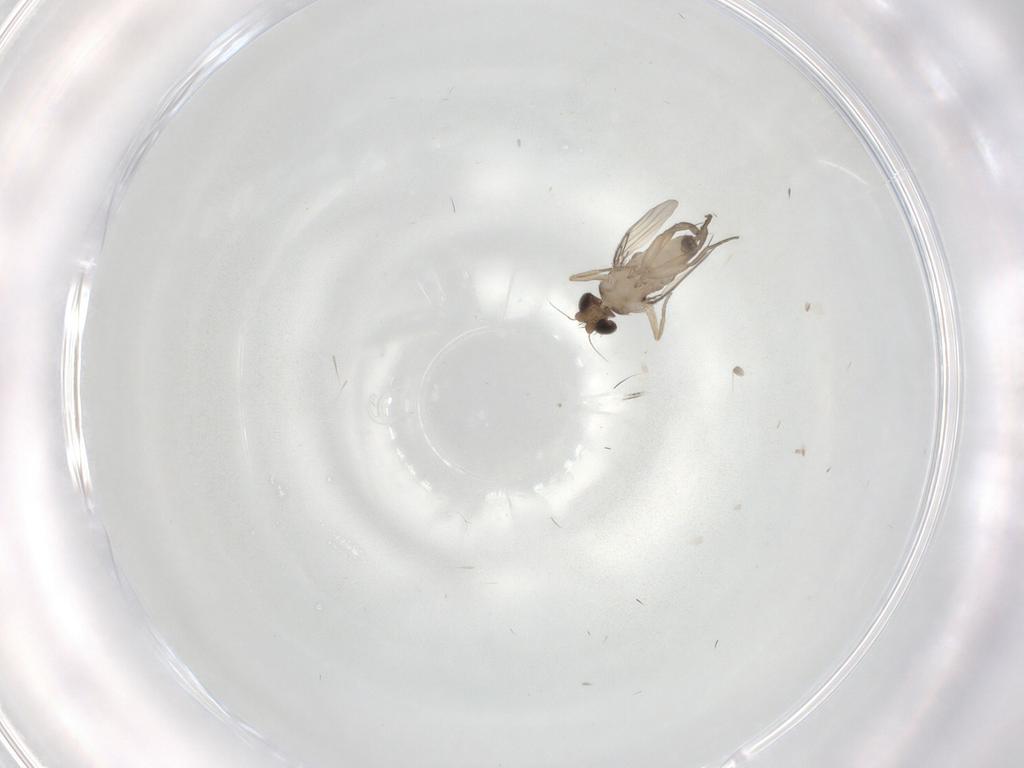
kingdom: Animalia
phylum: Arthropoda
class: Insecta
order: Diptera
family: Phoridae
